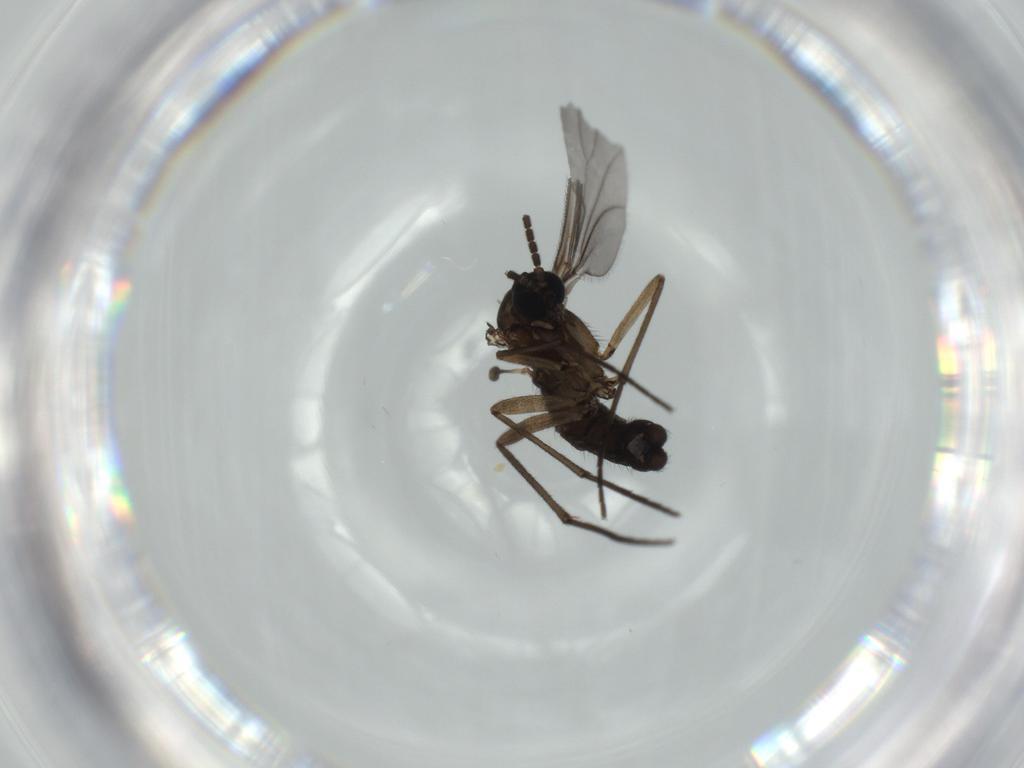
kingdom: Animalia
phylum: Arthropoda
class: Insecta
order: Diptera
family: Sciaridae
